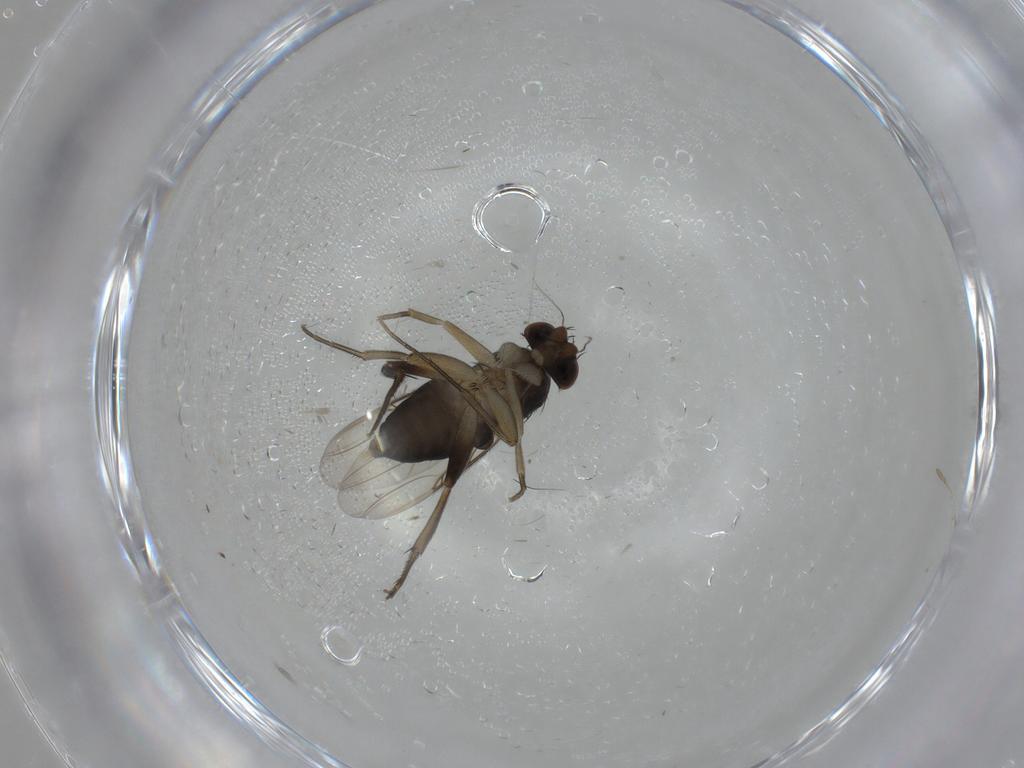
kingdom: Animalia
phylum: Arthropoda
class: Insecta
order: Diptera
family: Phoridae
